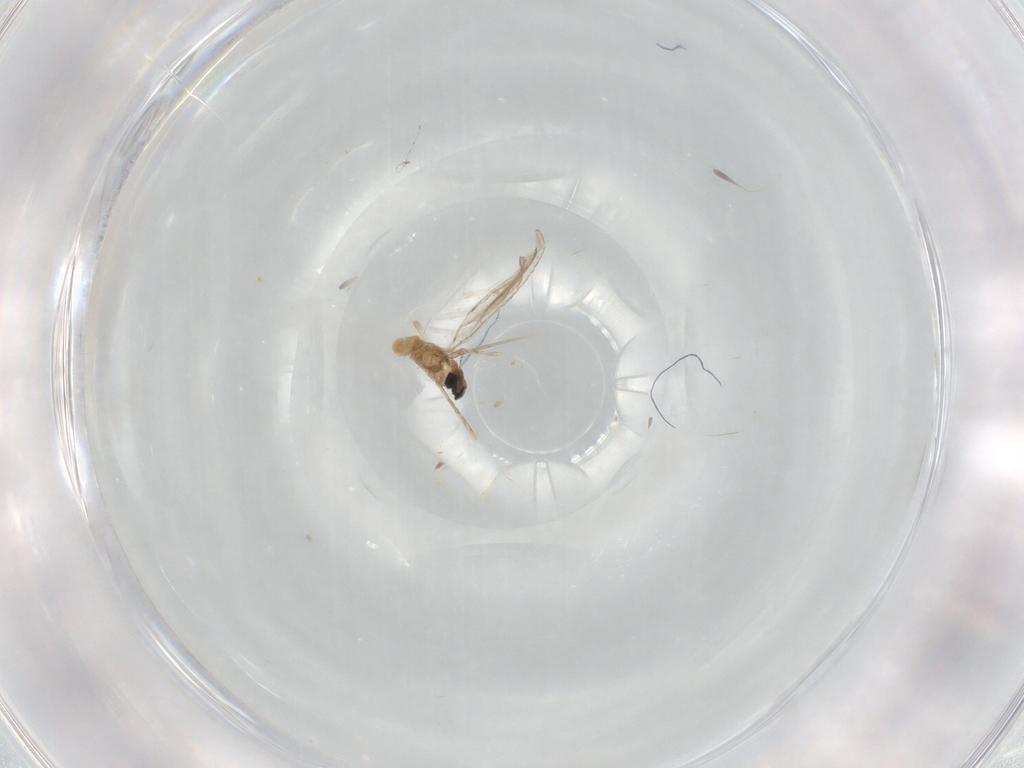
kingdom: Animalia
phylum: Arthropoda
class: Insecta
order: Diptera
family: Cecidomyiidae
